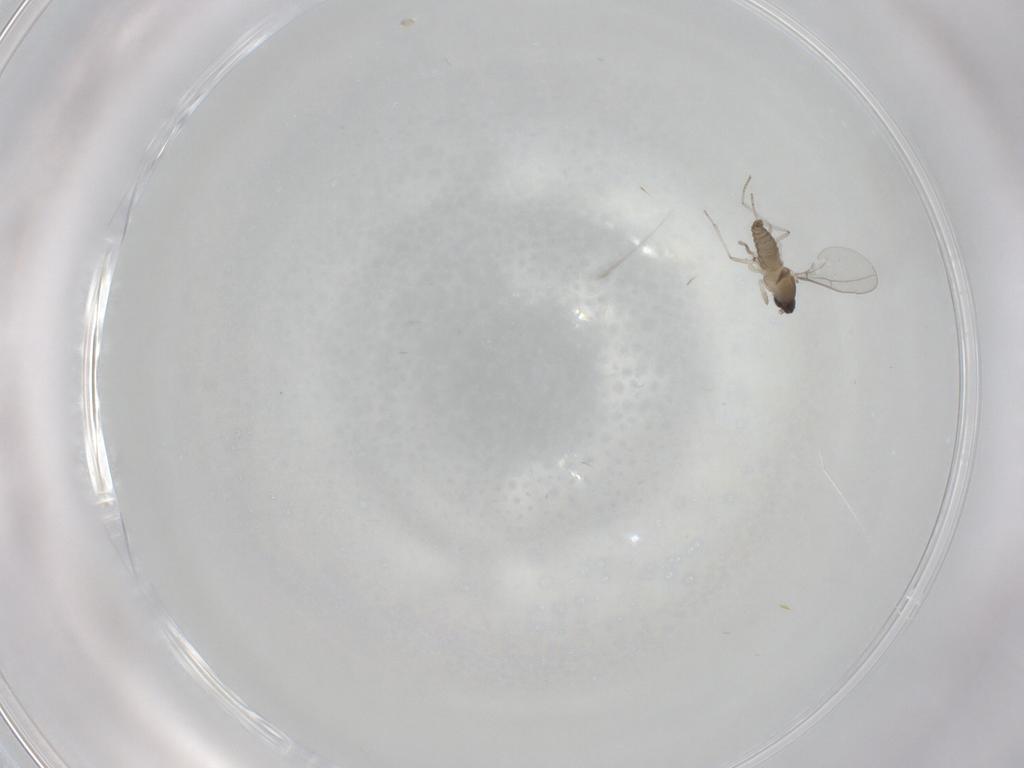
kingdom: Animalia
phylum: Arthropoda
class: Insecta
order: Diptera
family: Cecidomyiidae
